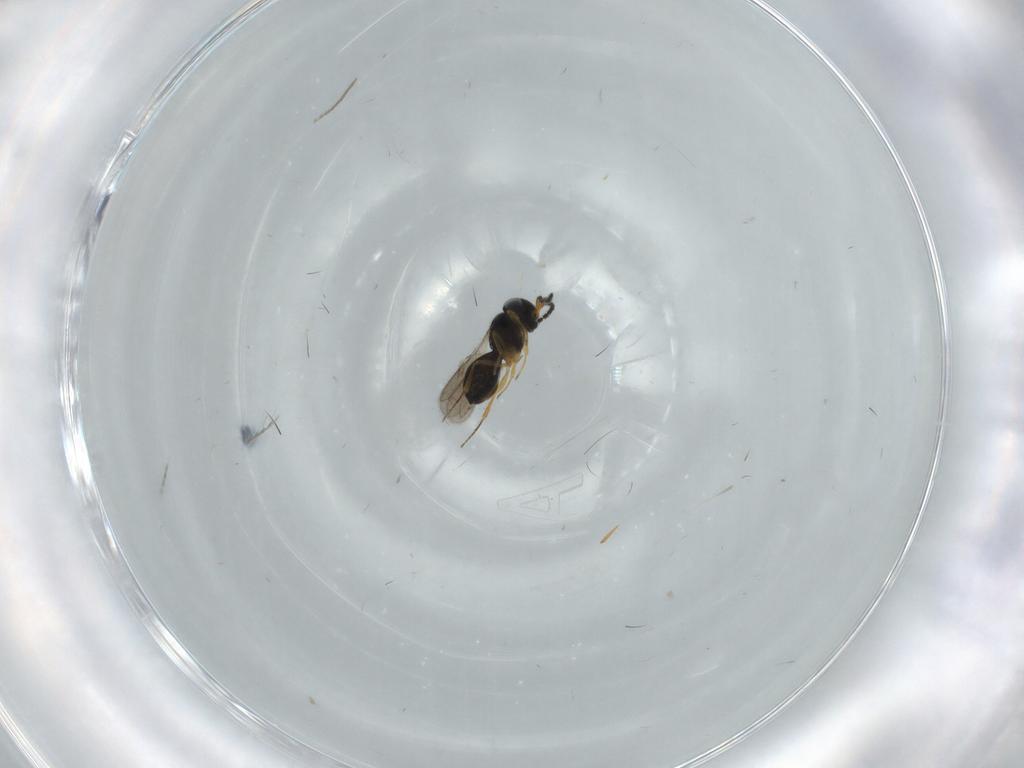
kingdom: Animalia
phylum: Arthropoda
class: Insecta
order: Hymenoptera
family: Scelionidae
